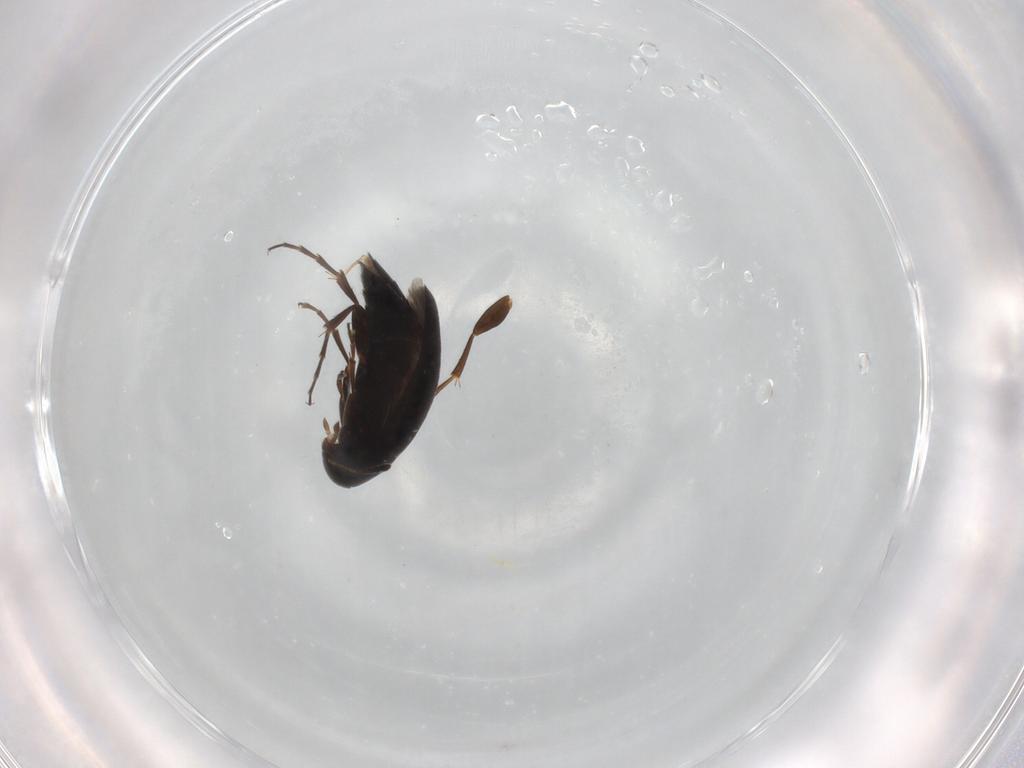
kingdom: Animalia
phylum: Arthropoda
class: Insecta
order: Coleoptera
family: Scraptiidae
